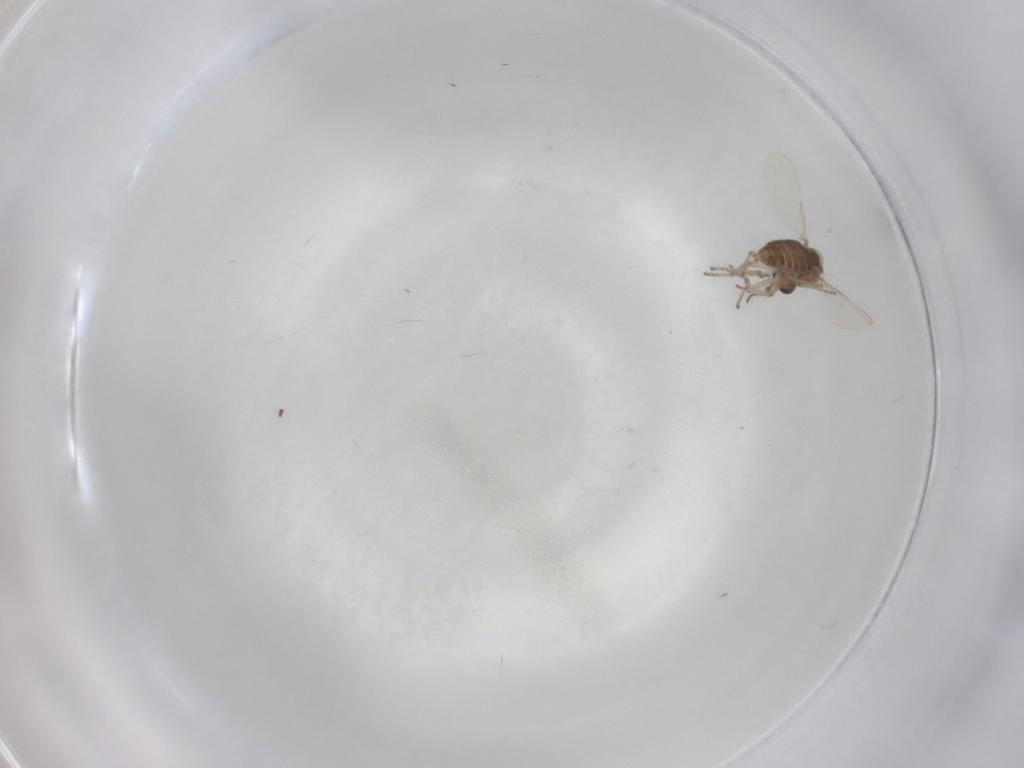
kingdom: Animalia
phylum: Arthropoda
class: Insecta
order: Diptera
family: Ceratopogonidae
